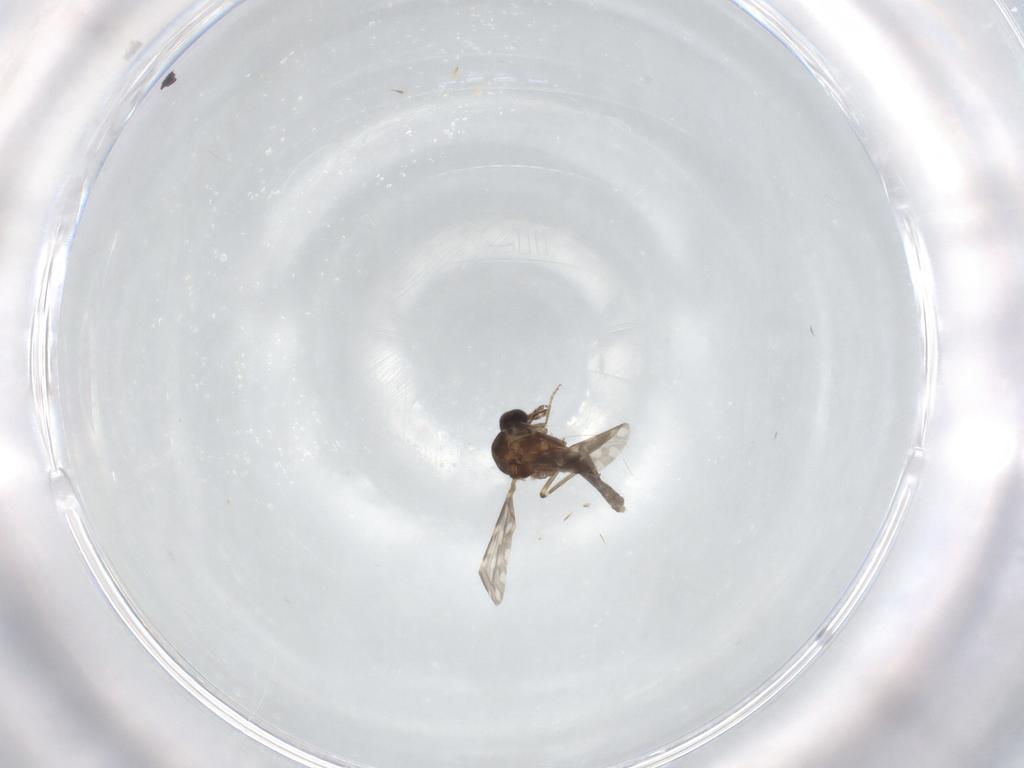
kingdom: Animalia
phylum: Arthropoda
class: Insecta
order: Diptera
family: Ceratopogonidae
